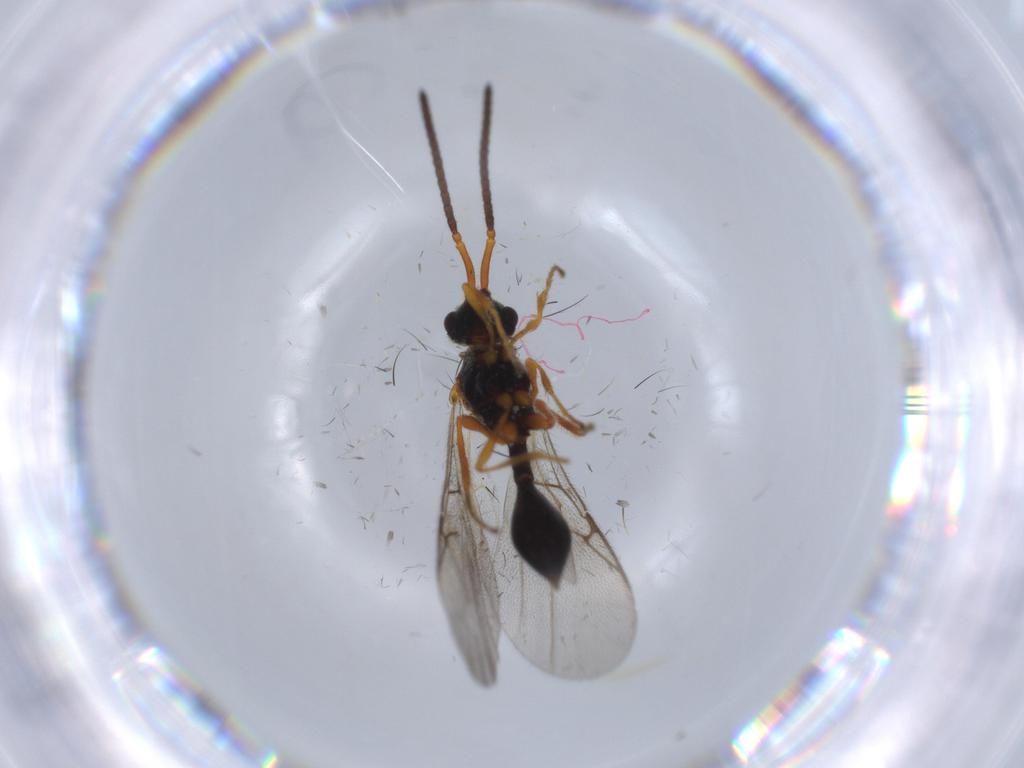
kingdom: Animalia
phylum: Arthropoda
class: Insecta
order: Hymenoptera
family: Diapriidae
